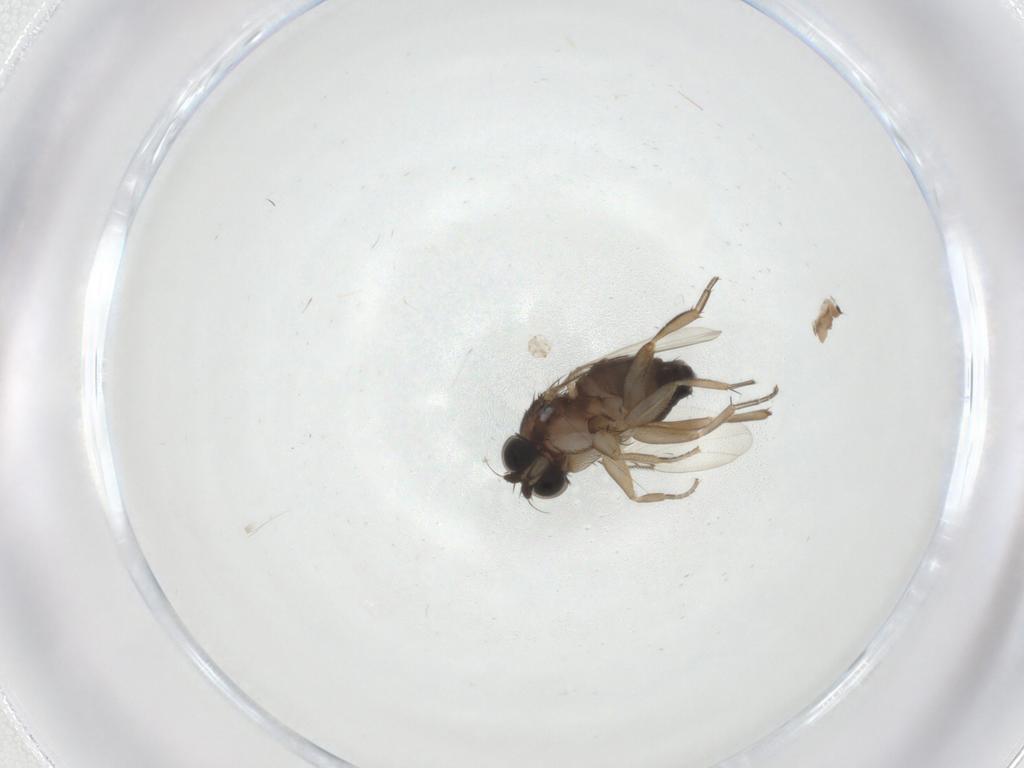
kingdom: Animalia
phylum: Arthropoda
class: Insecta
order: Diptera
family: Phoridae
